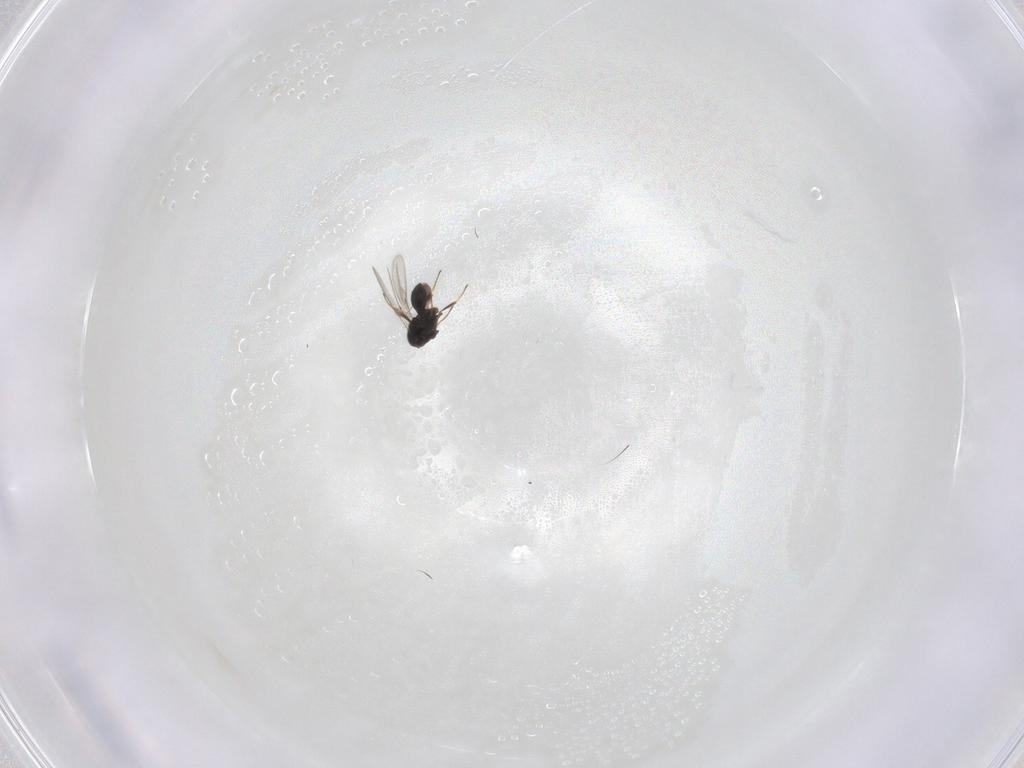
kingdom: Animalia
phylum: Arthropoda
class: Insecta
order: Hymenoptera
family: Scelionidae
